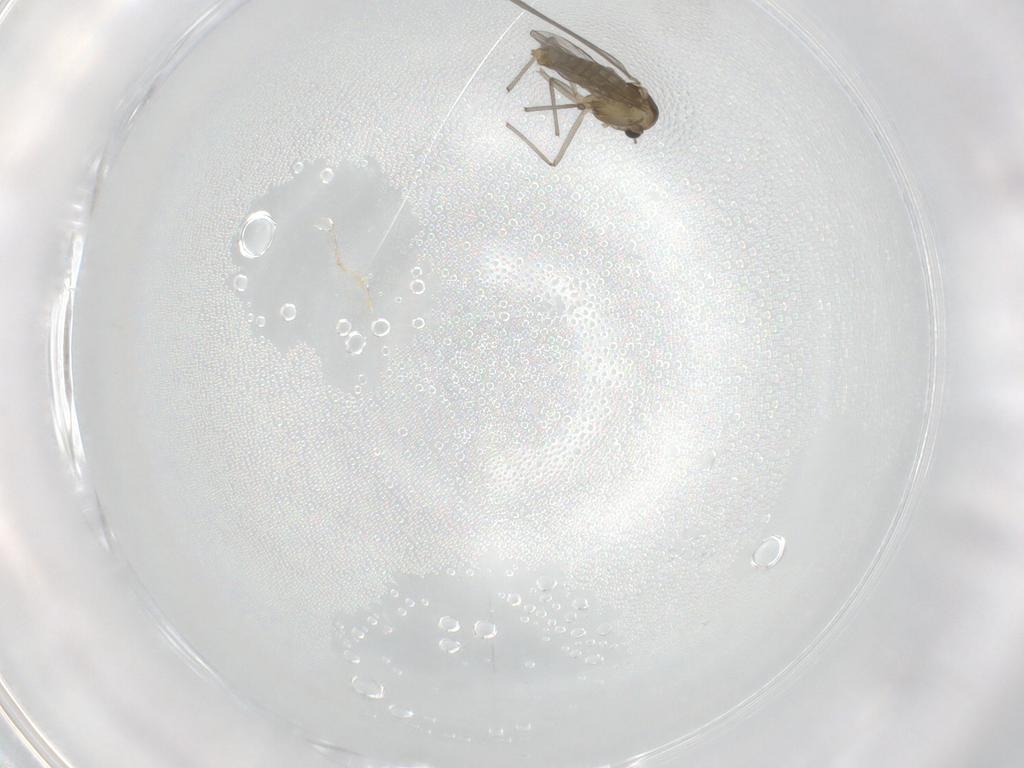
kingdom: Animalia
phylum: Arthropoda
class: Insecta
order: Diptera
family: Chironomidae
